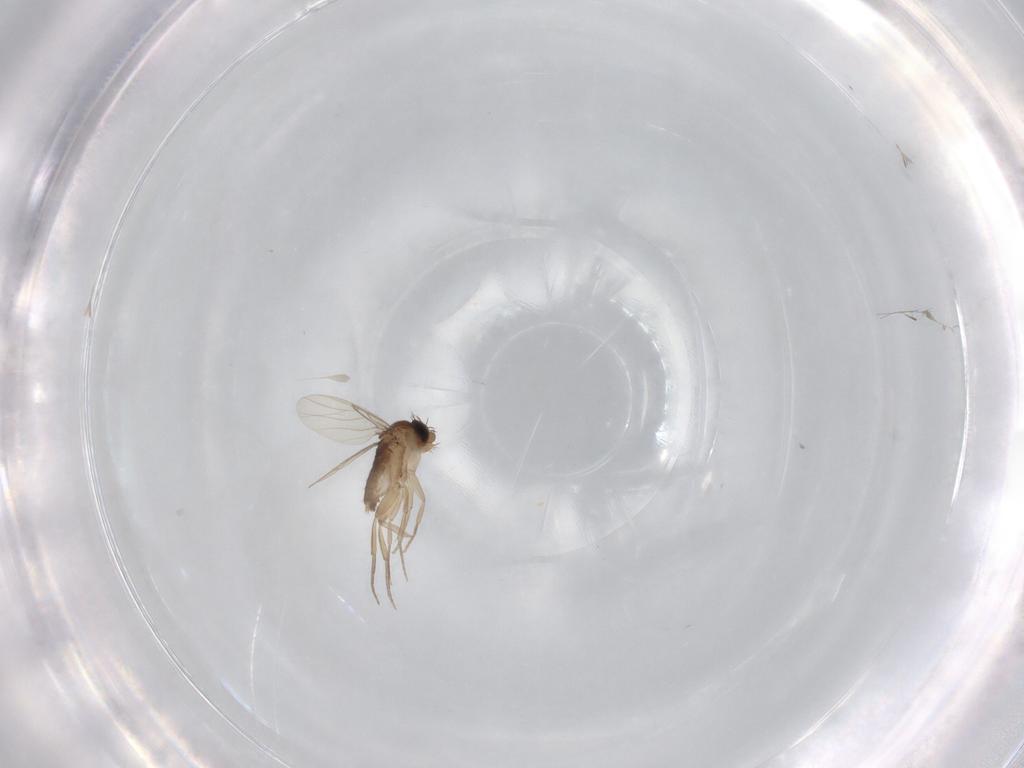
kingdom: Animalia
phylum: Arthropoda
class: Insecta
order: Diptera
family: Phoridae
